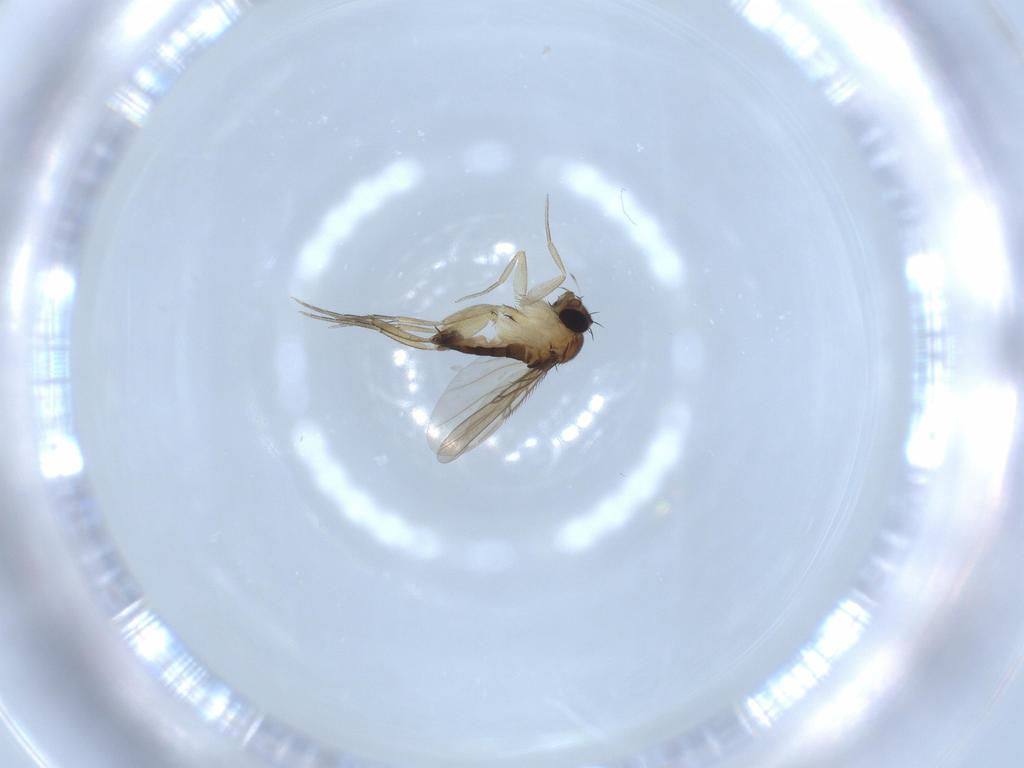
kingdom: Animalia
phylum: Arthropoda
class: Insecta
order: Diptera
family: Phoridae
